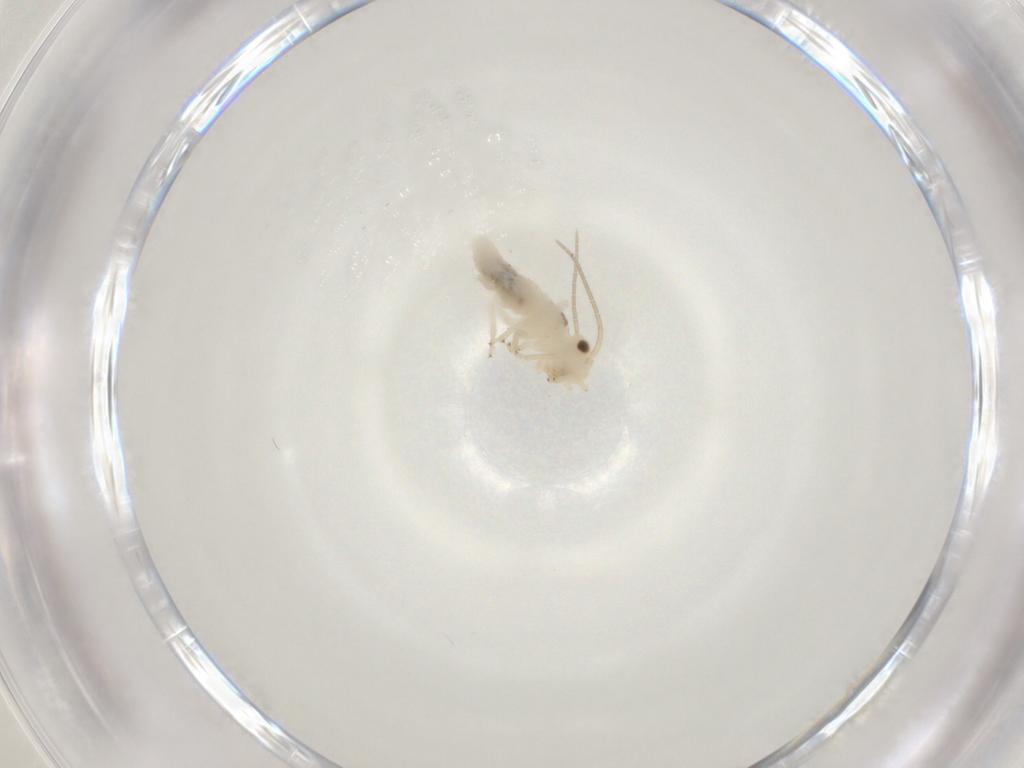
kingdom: Animalia
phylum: Arthropoda
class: Insecta
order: Psocodea
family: Caeciliusidae
